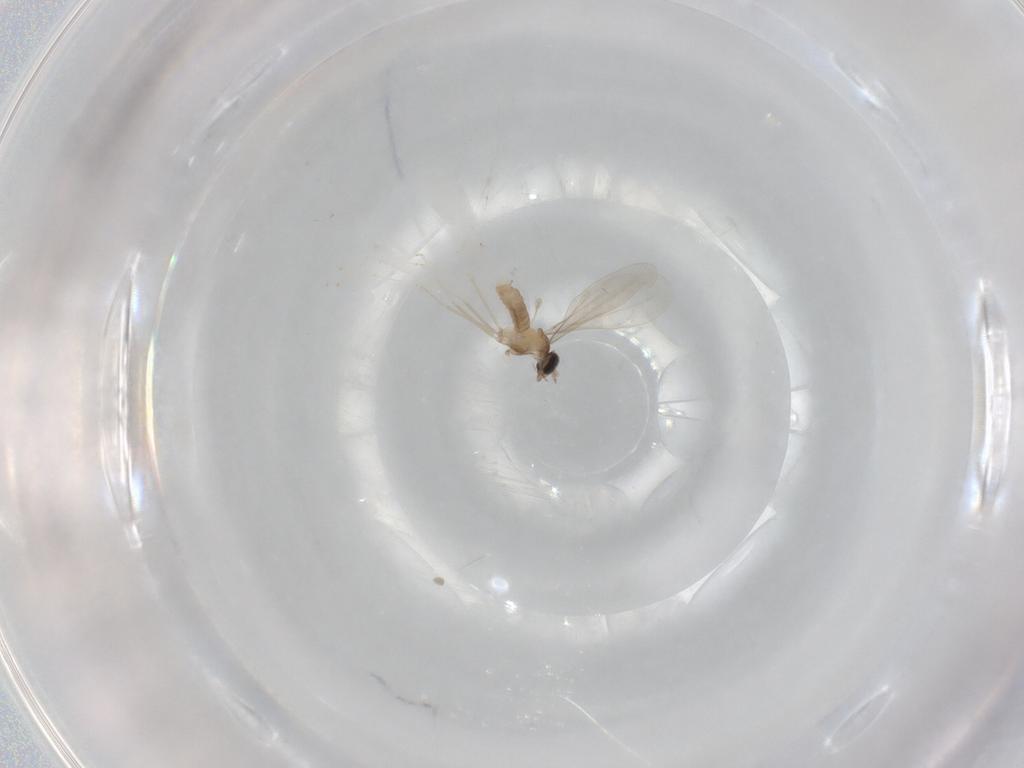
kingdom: Animalia
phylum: Arthropoda
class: Insecta
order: Diptera
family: Cecidomyiidae
